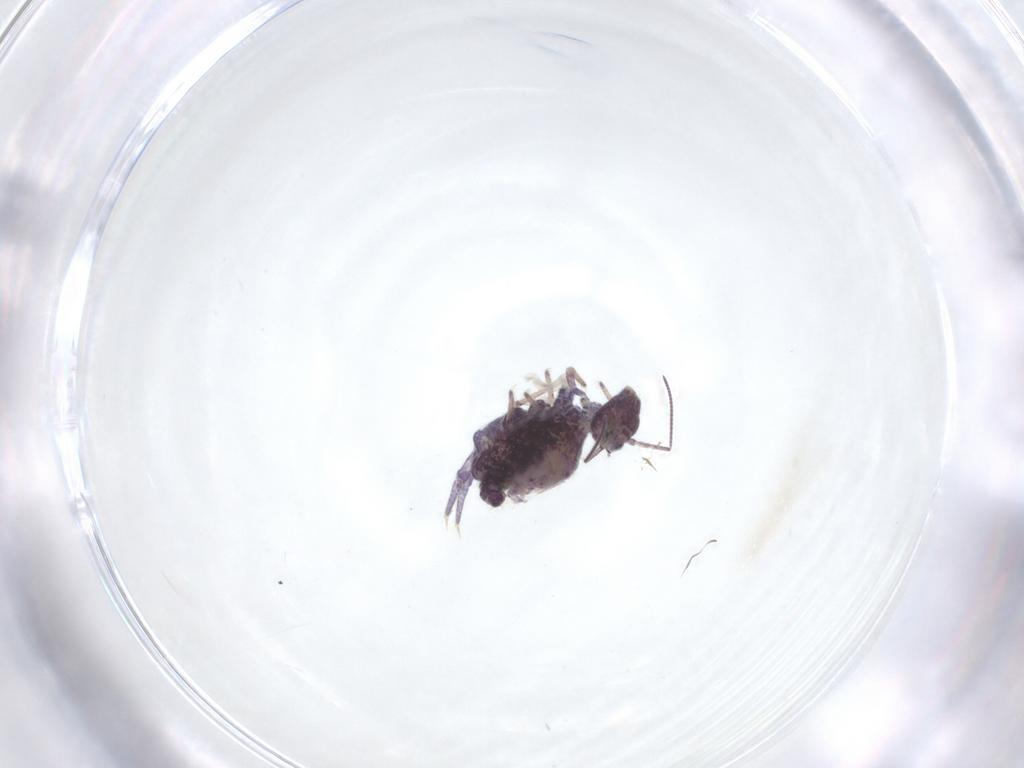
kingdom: Animalia
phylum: Arthropoda
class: Collembola
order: Symphypleona
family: Sminthuridae
